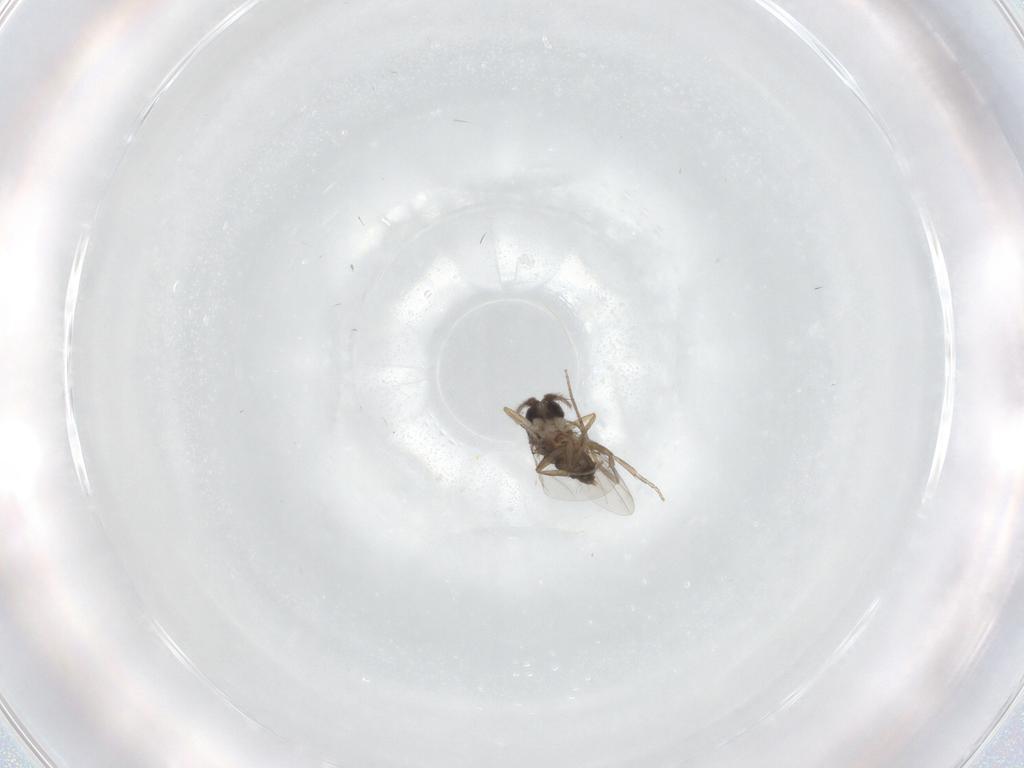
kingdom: Animalia
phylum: Arthropoda
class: Insecta
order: Diptera
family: Phoridae
